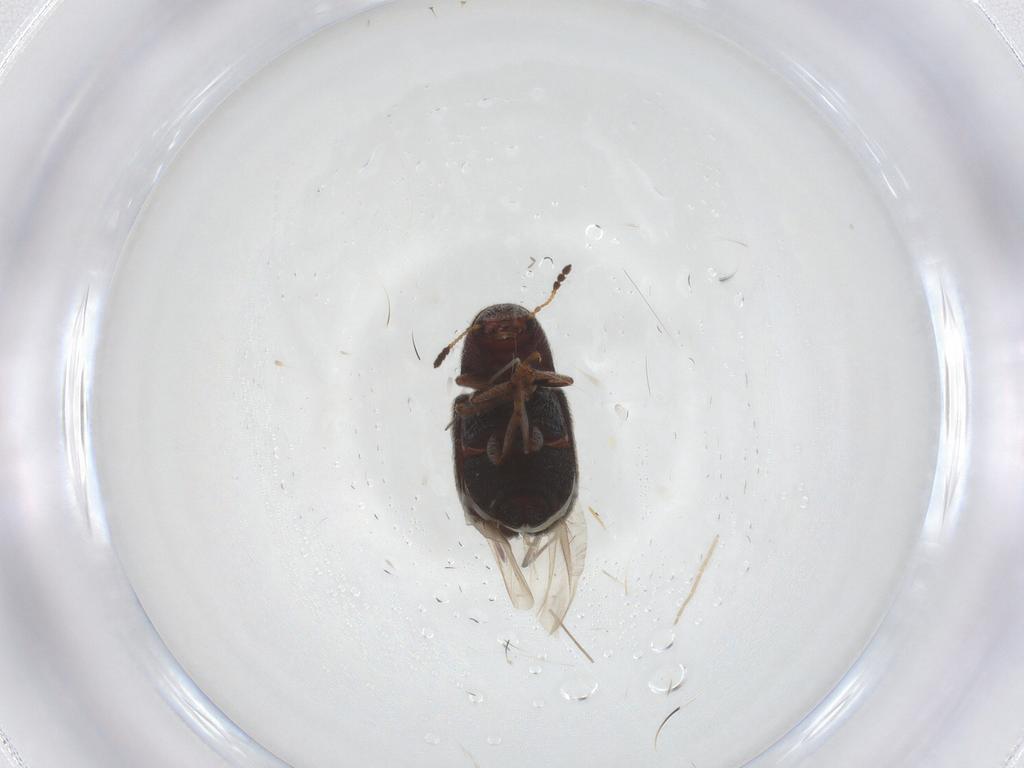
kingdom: Animalia
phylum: Arthropoda
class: Insecta
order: Coleoptera
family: Anthribidae
